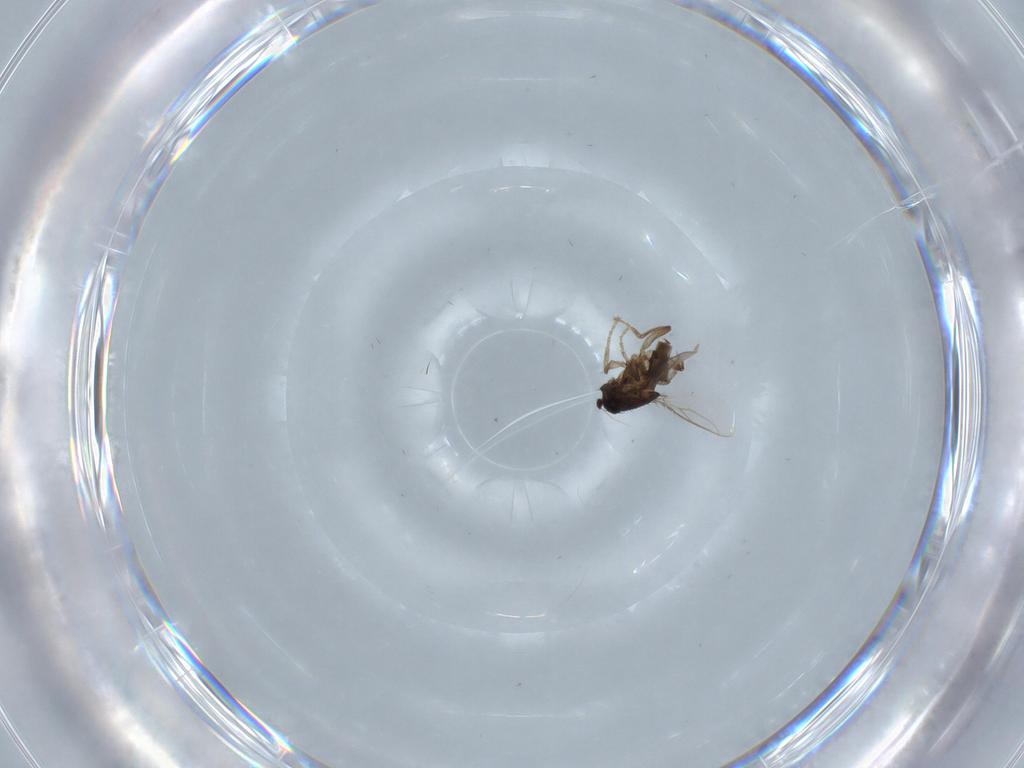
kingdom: Animalia
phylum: Arthropoda
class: Insecta
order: Diptera
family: Sphaeroceridae
